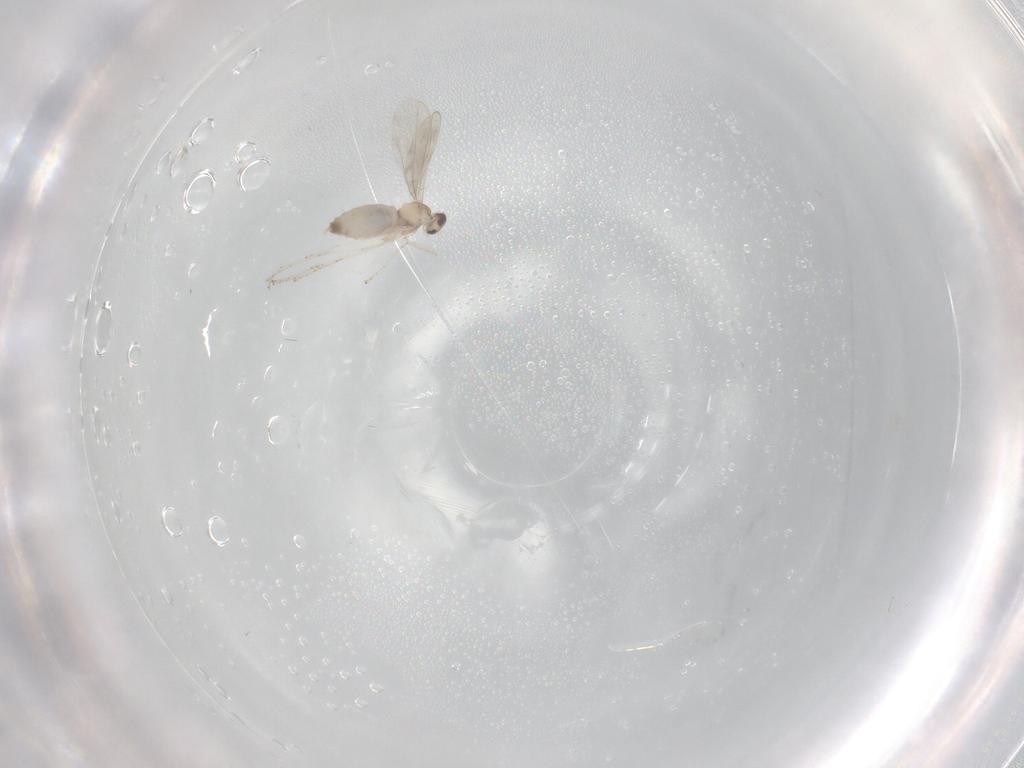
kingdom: Animalia
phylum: Arthropoda
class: Insecta
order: Diptera
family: Cecidomyiidae
